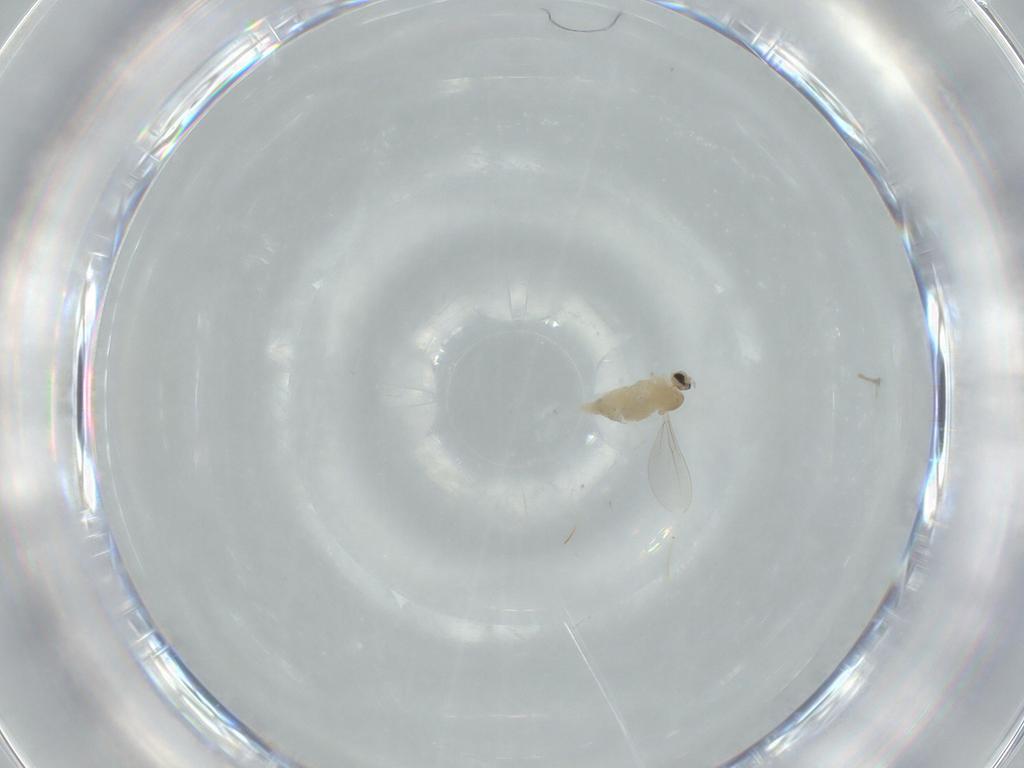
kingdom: Animalia
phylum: Arthropoda
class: Insecta
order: Diptera
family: Cecidomyiidae
